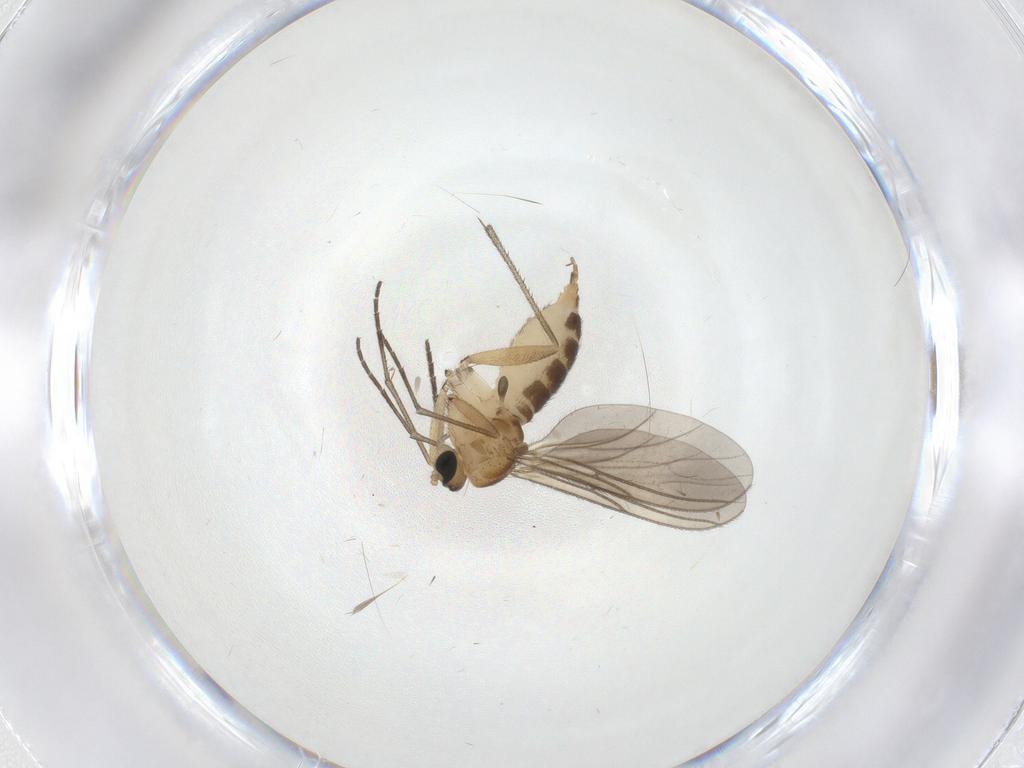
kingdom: Animalia
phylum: Arthropoda
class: Insecta
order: Diptera
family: Sciaridae
